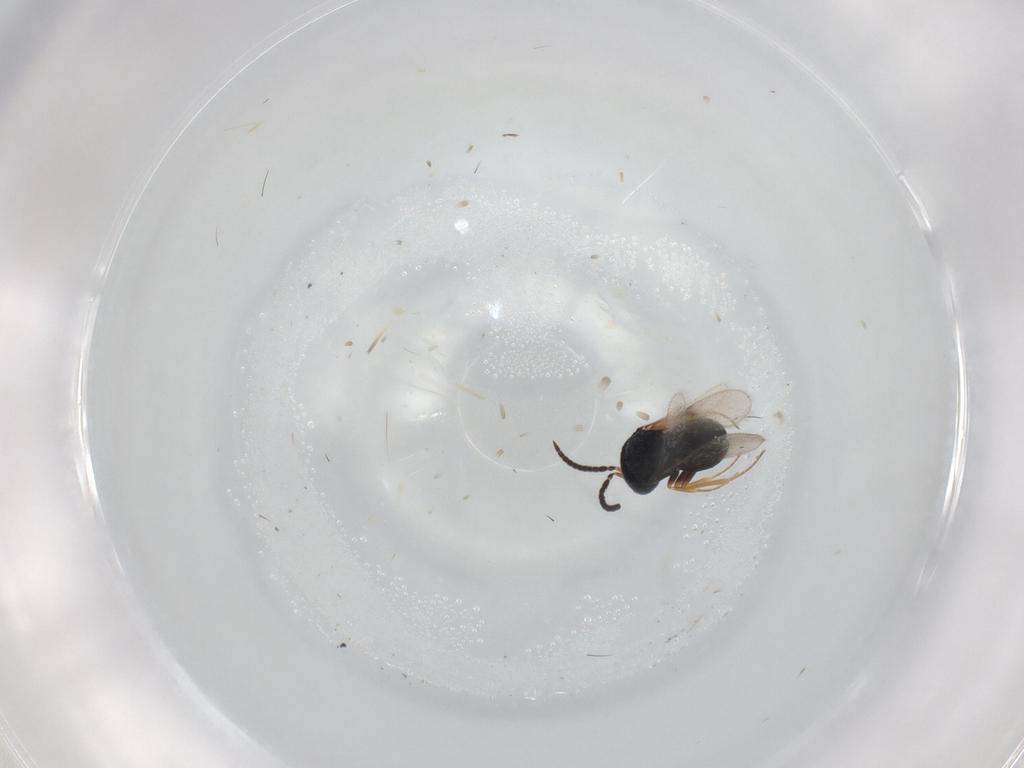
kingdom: Animalia
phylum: Arthropoda
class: Insecta
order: Hymenoptera
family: Scelionidae
